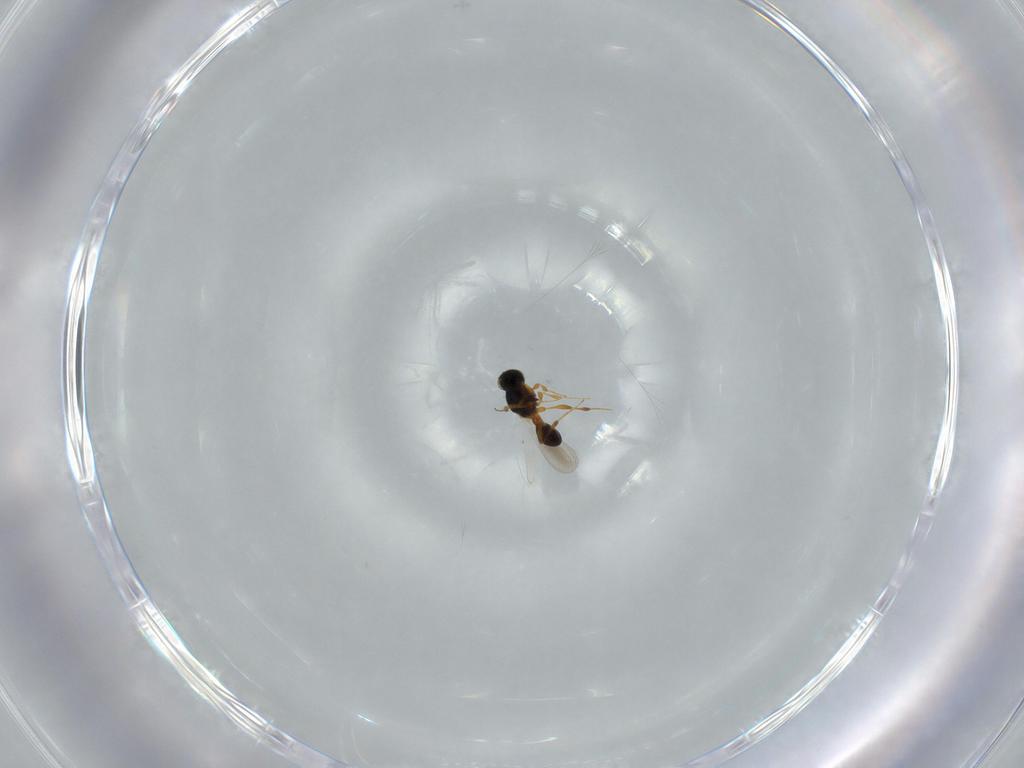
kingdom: Animalia
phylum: Arthropoda
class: Insecta
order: Hymenoptera
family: Platygastridae
